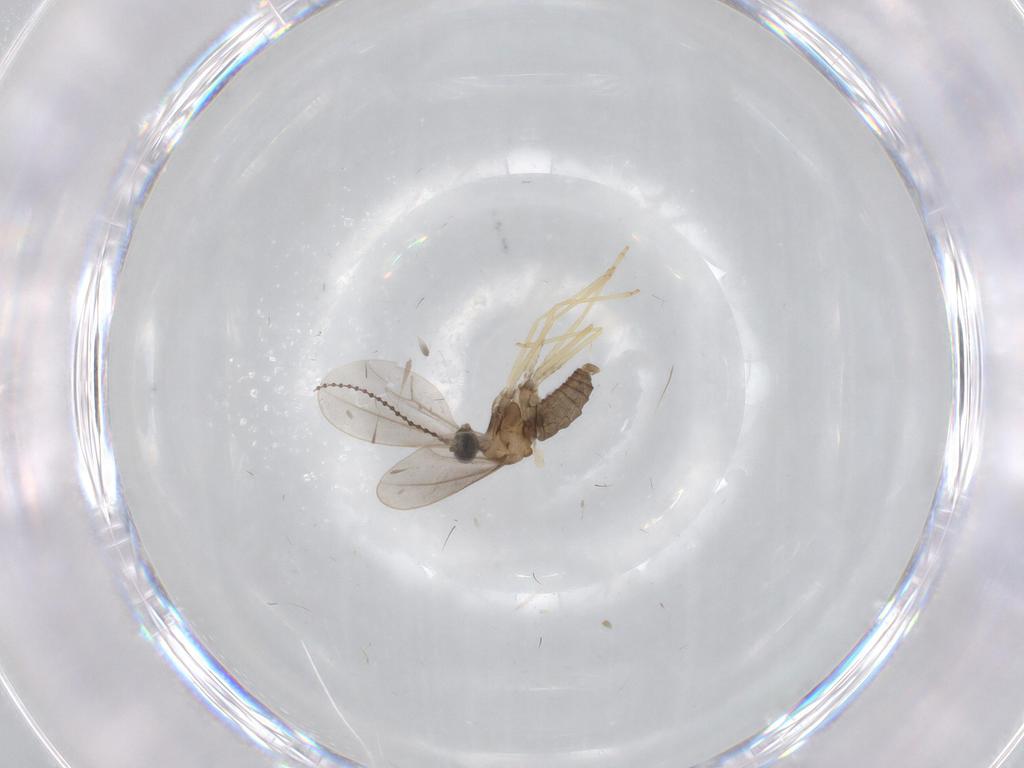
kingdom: Animalia
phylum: Arthropoda
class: Insecta
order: Diptera
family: Cecidomyiidae
